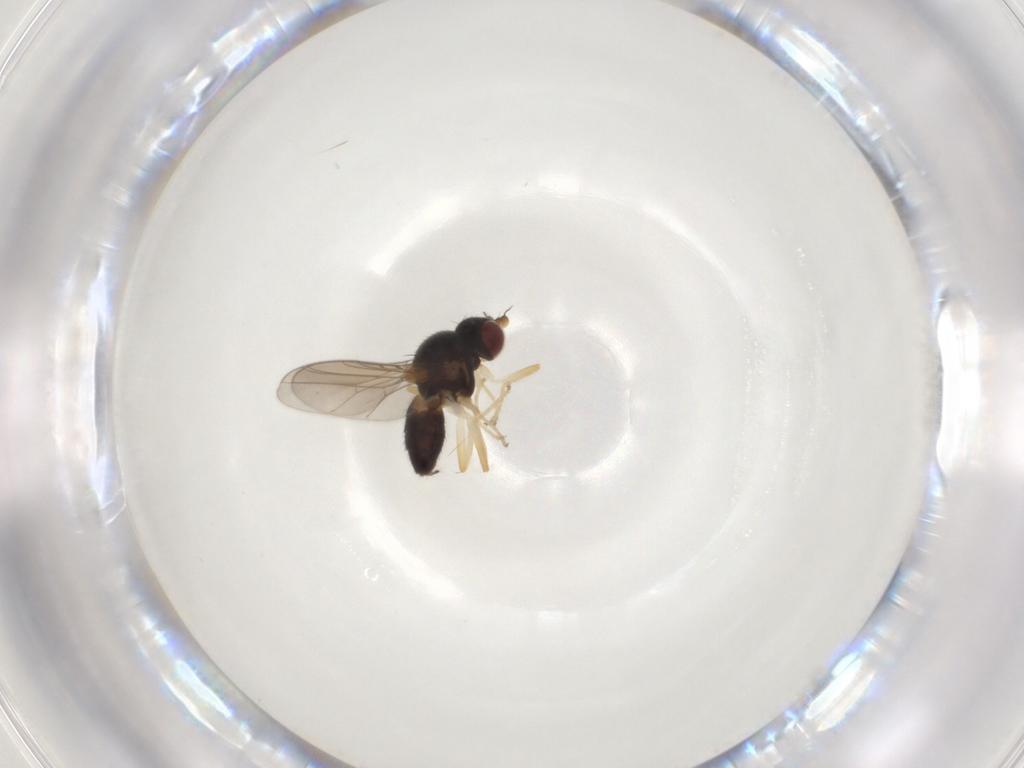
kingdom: Animalia
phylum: Arthropoda
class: Insecta
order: Diptera
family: Chloropidae
